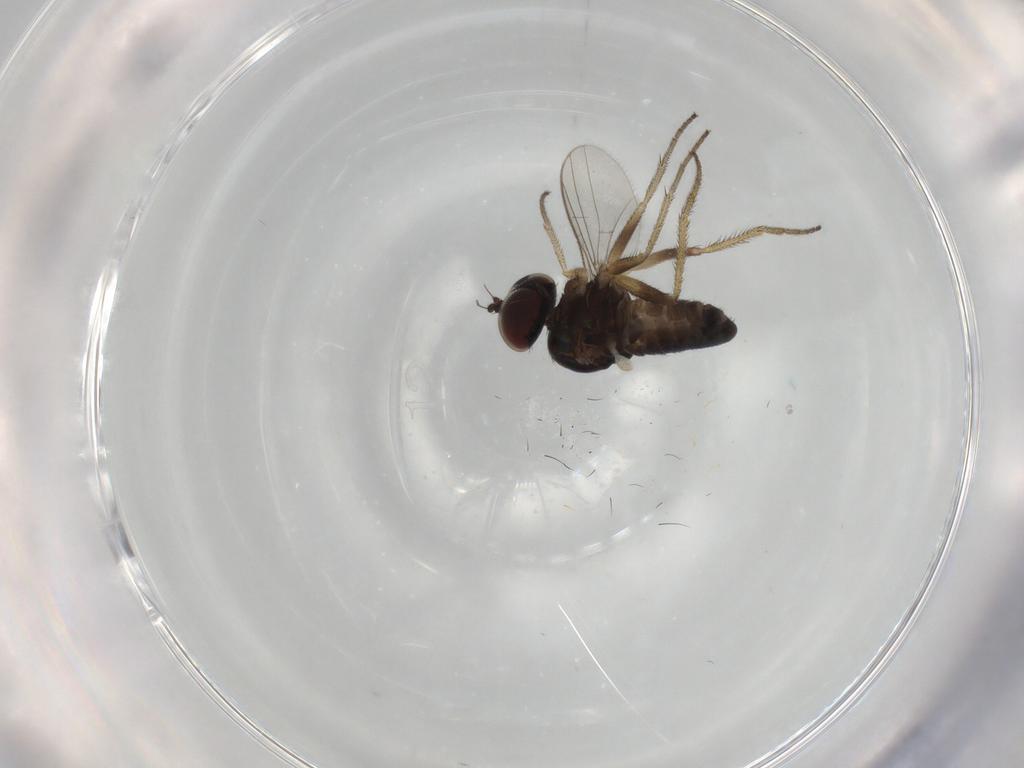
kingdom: Animalia
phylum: Arthropoda
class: Insecta
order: Diptera
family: Dolichopodidae
